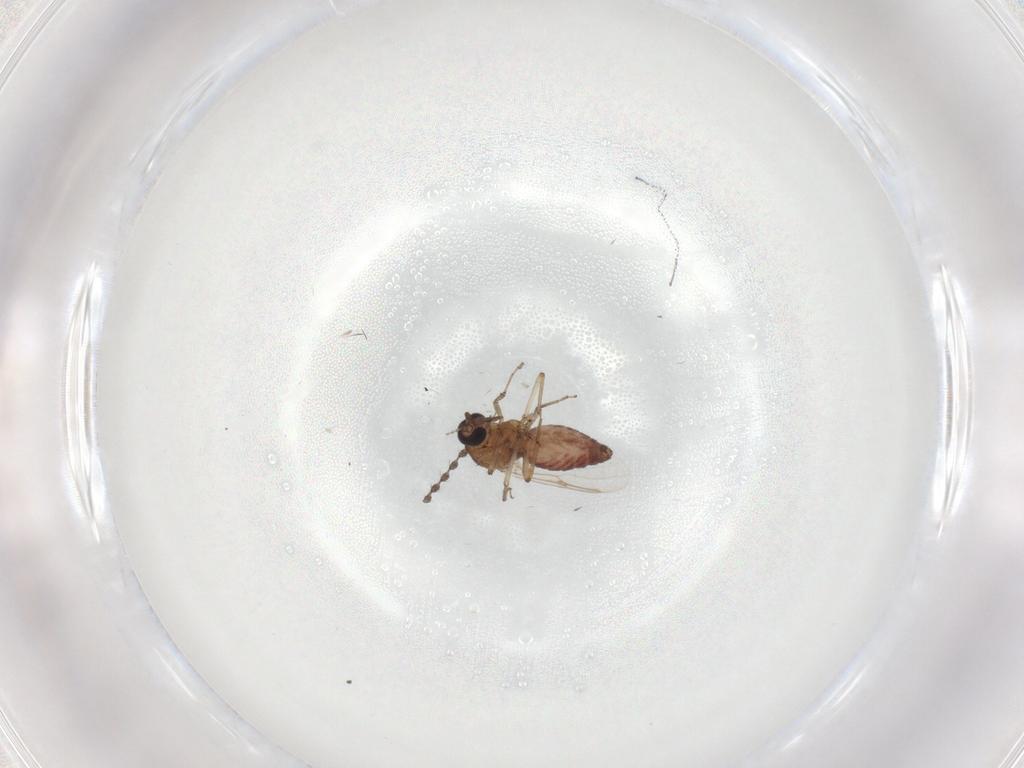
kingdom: Animalia
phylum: Arthropoda
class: Insecta
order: Diptera
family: Ceratopogonidae
